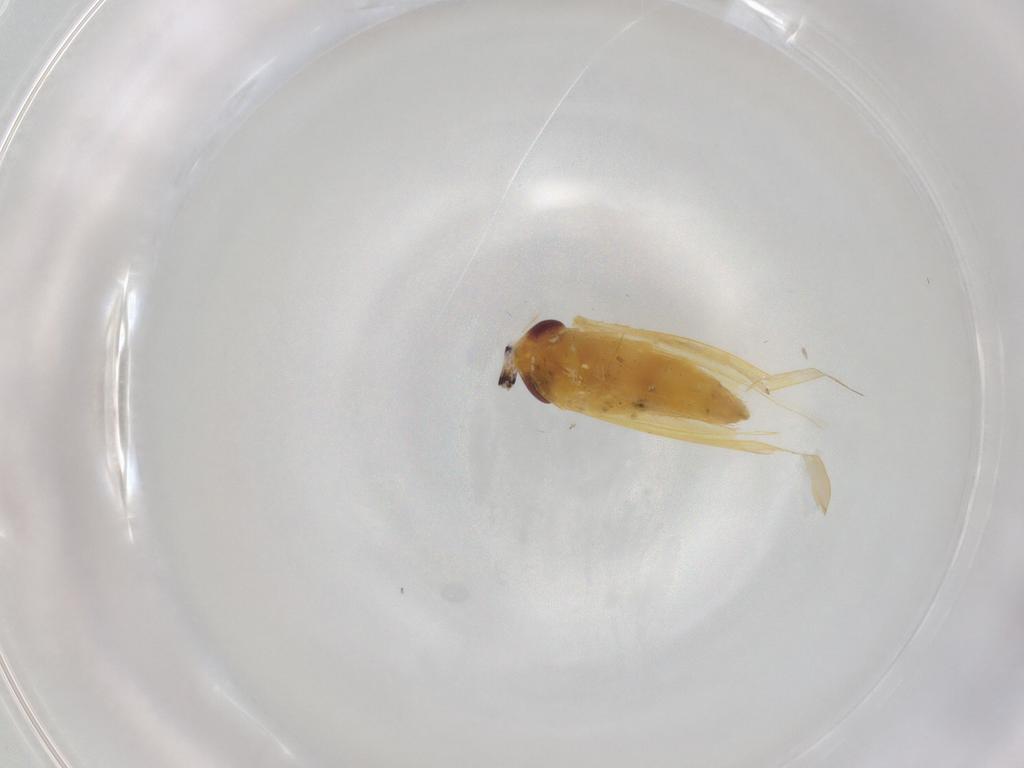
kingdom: Animalia
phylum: Arthropoda
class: Insecta
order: Hemiptera
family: Cicadellidae
